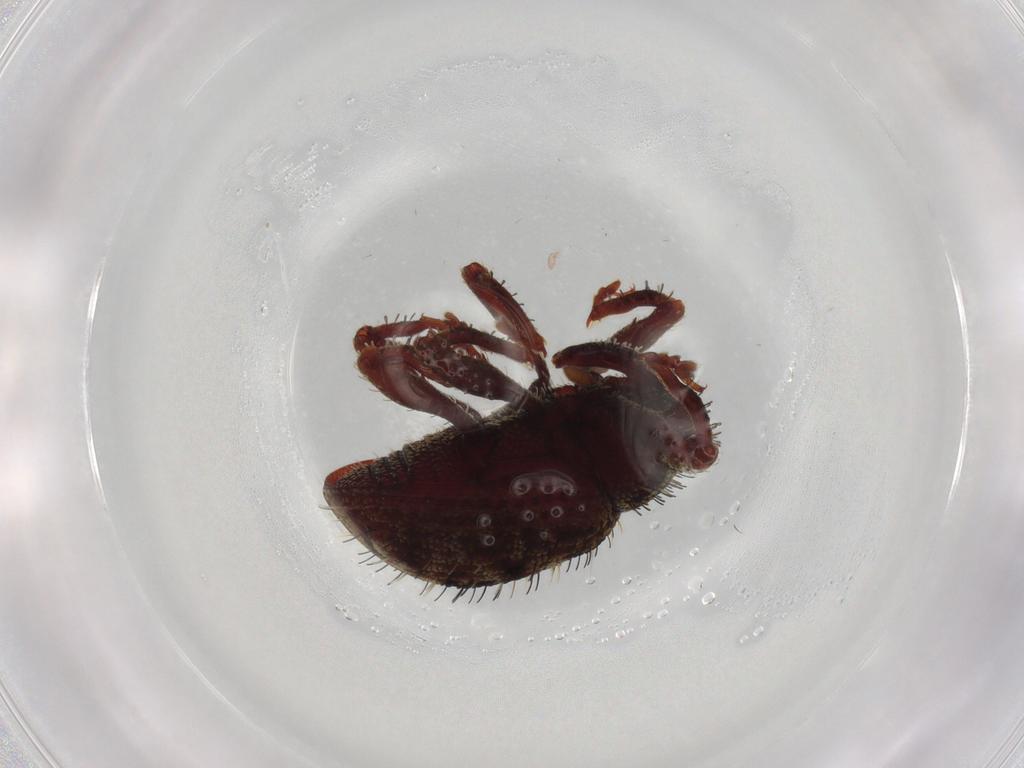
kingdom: Animalia
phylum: Arthropoda
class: Insecta
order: Coleoptera
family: Curculionidae
